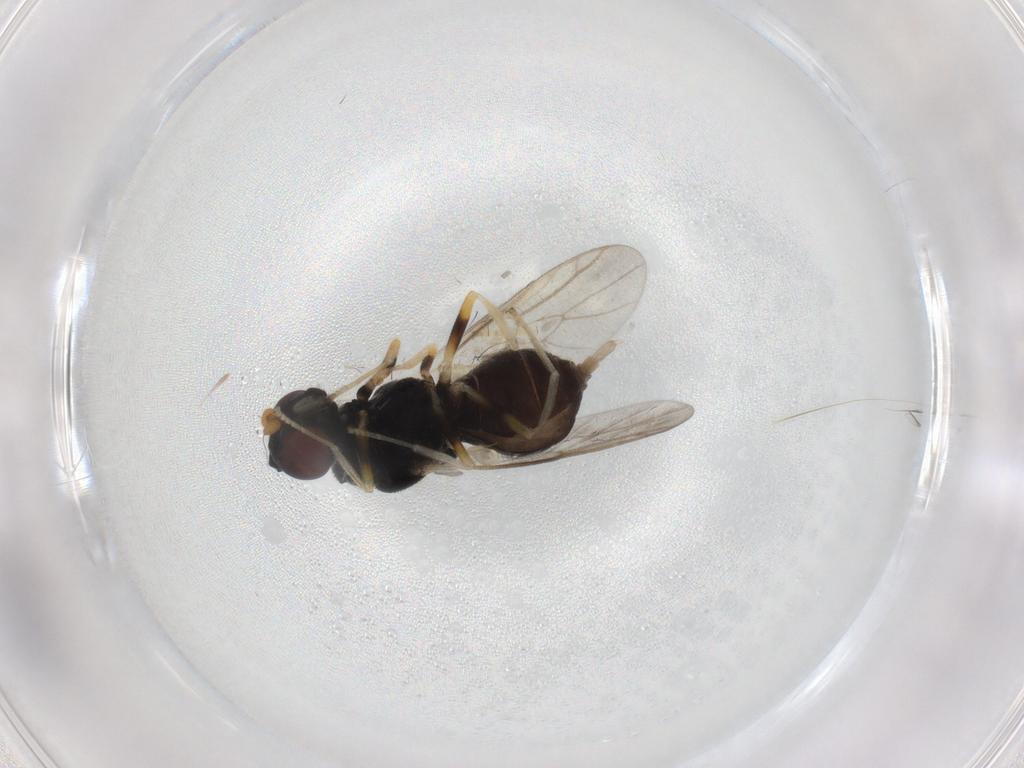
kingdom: Animalia
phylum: Arthropoda
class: Insecta
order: Diptera
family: Stratiomyidae
